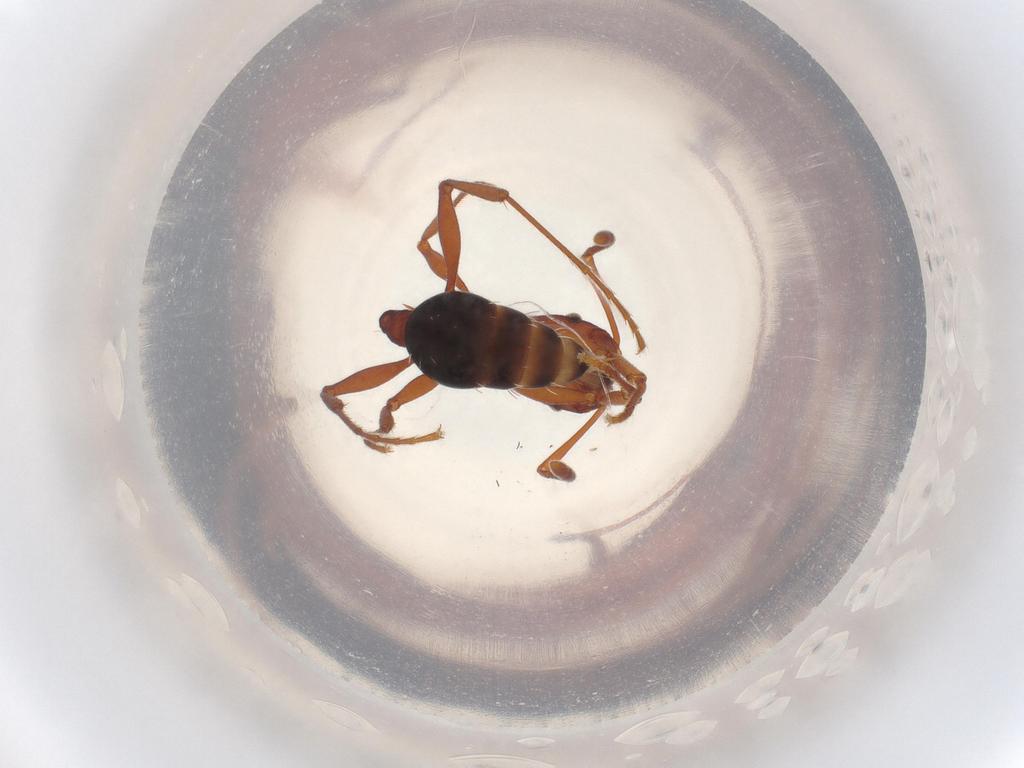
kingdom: Animalia
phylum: Arthropoda
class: Insecta
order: Hymenoptera
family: Formicidae
